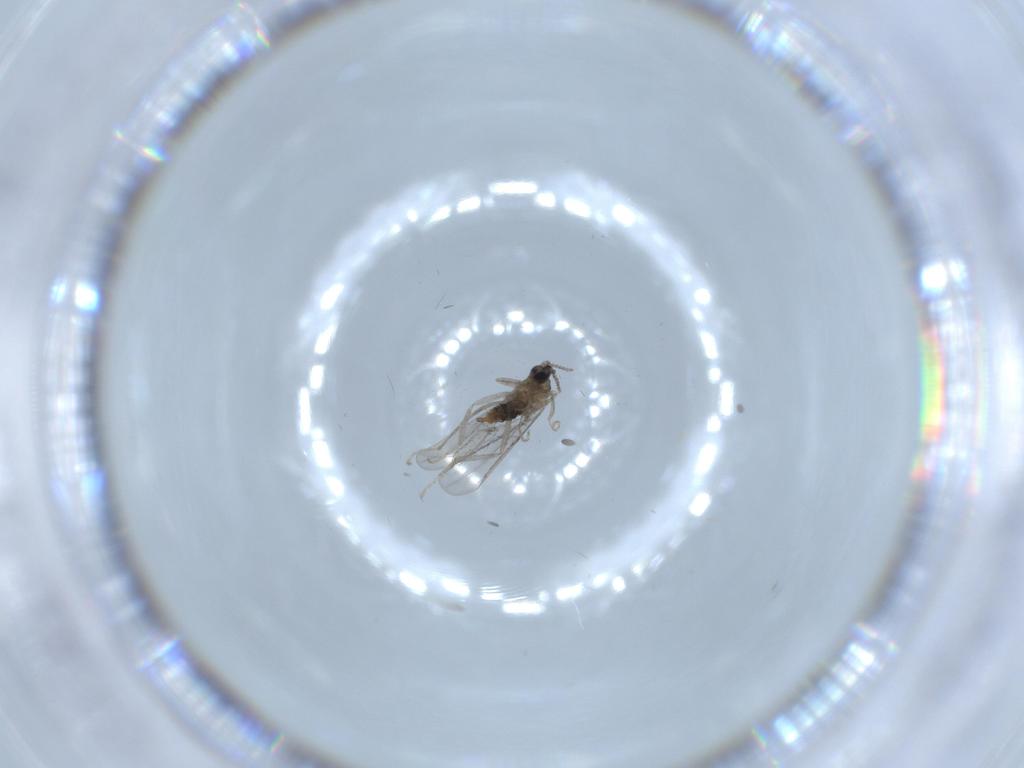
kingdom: Animalia
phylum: Arthropoda
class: Insecta
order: Diptera
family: Cecidomyiidae
